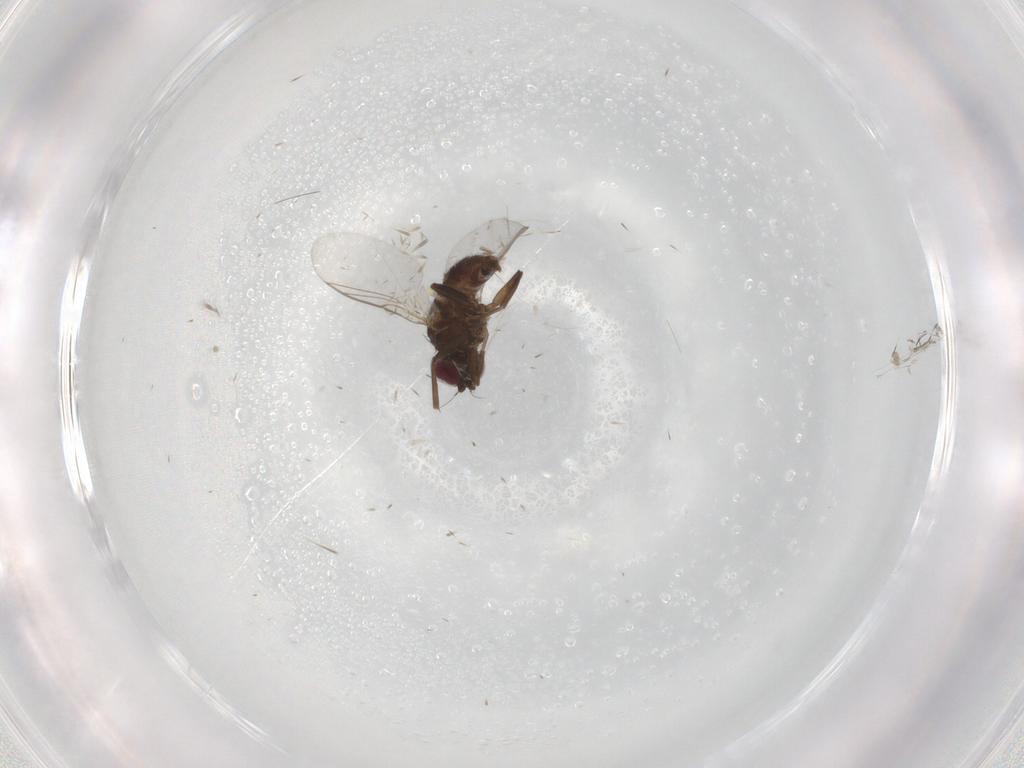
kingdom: Animalia
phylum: Arthropoda
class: Insecta
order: Diptera
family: Agromyzidae
